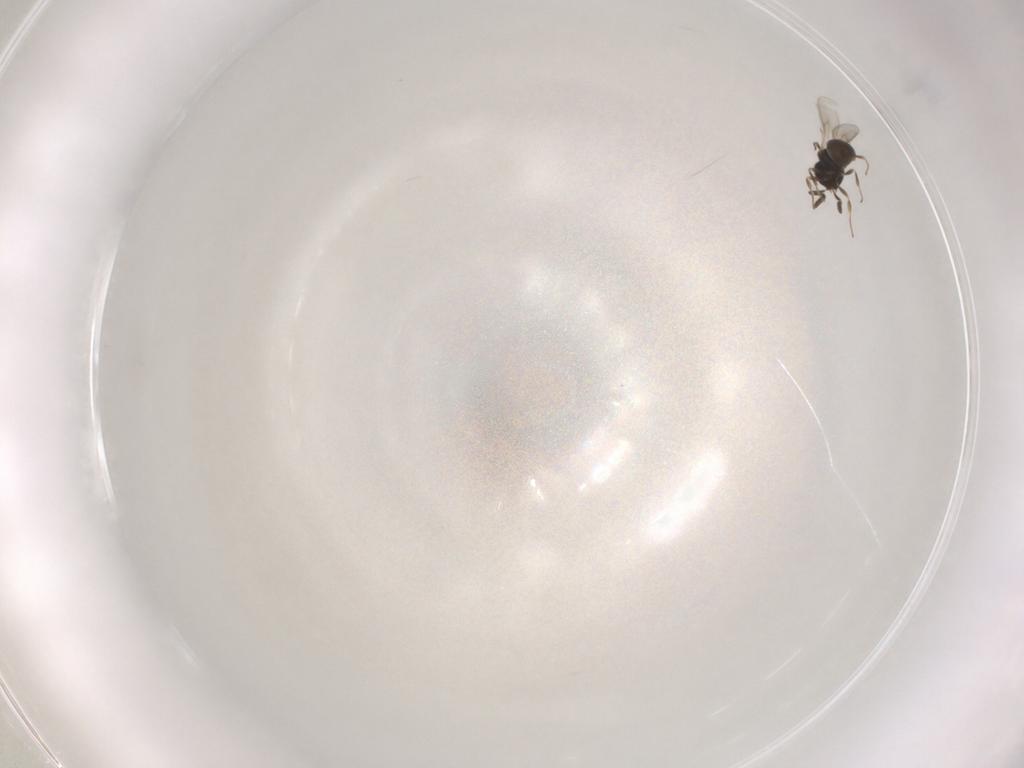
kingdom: Animalia
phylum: Arthropoda
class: Insecta
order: Hymenoptera
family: Scelionidae
